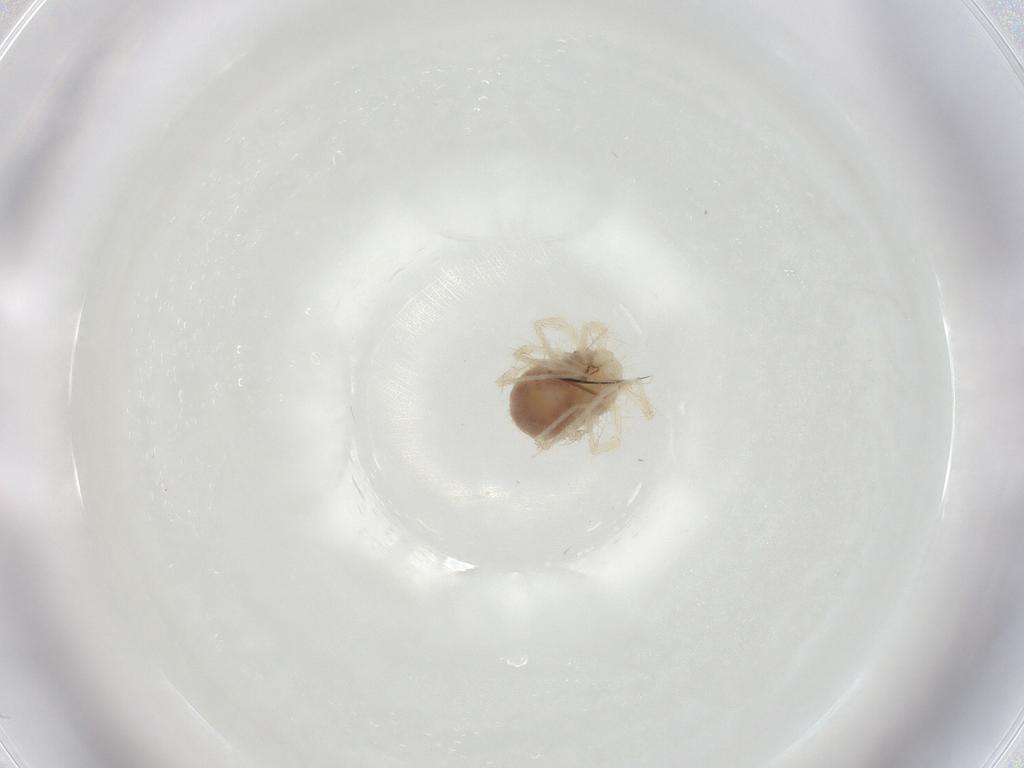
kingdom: Animalia
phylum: Arthropoda
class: Arachnida
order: Trombidiformes
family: Anystidae
